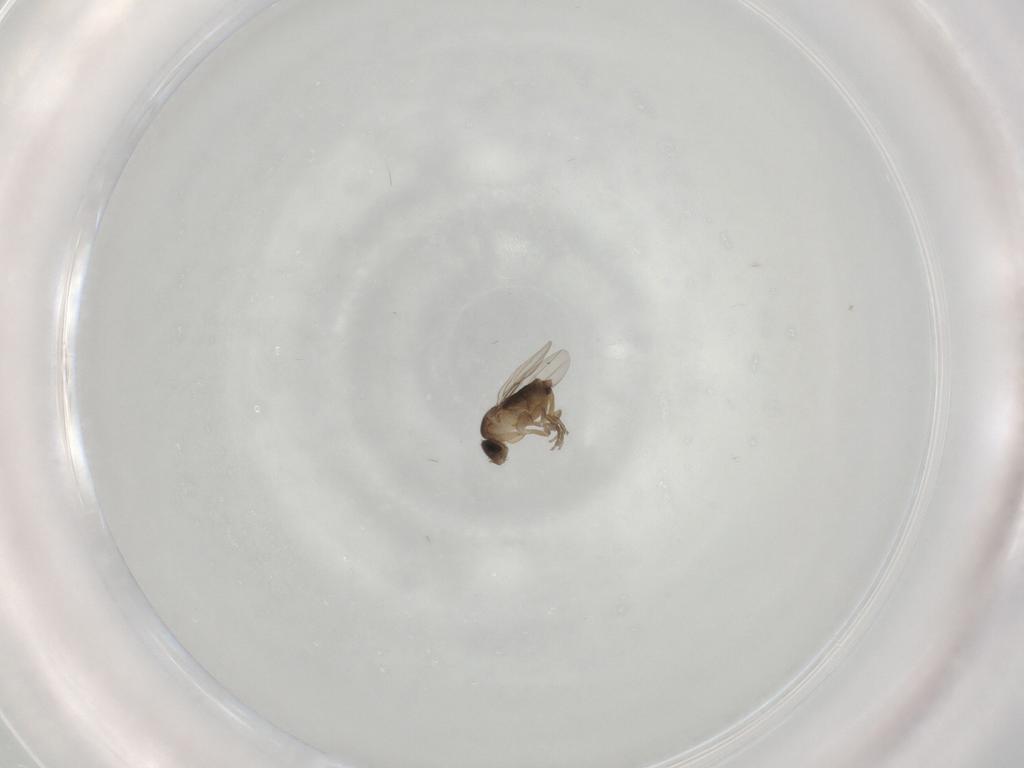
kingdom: Animalia
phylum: Arthropoda
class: Insecta
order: Diptera
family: Phoridae
